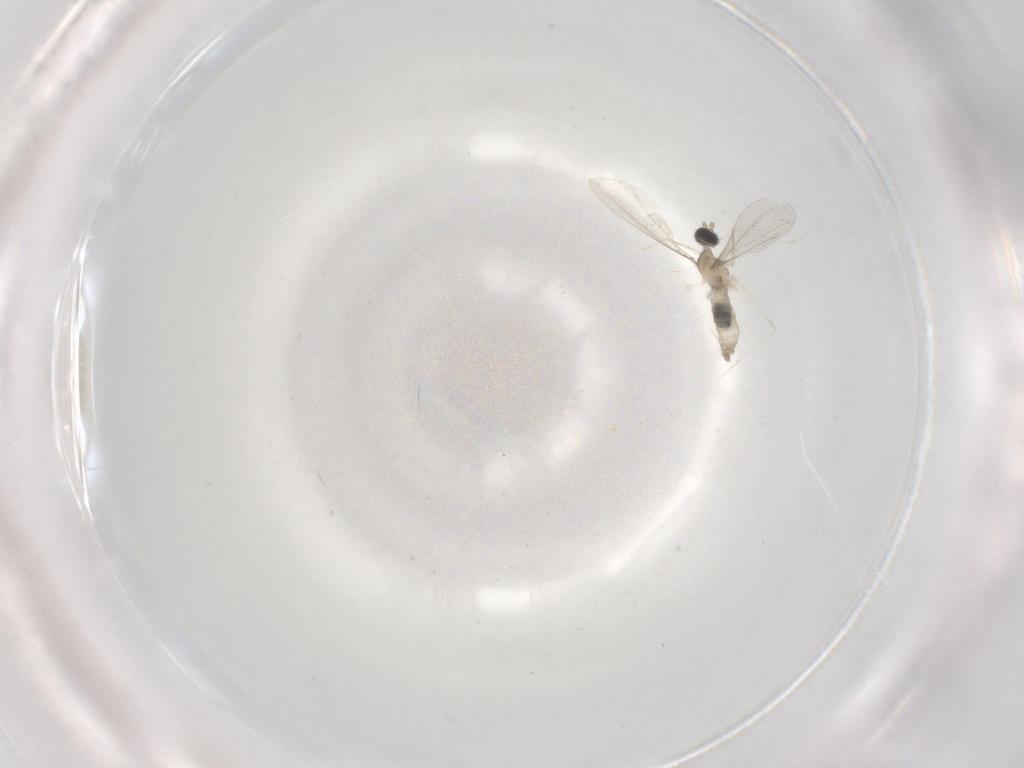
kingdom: Animalia
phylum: Arthropoda
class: Insecta
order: Diptera
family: Cecidomyiidae
